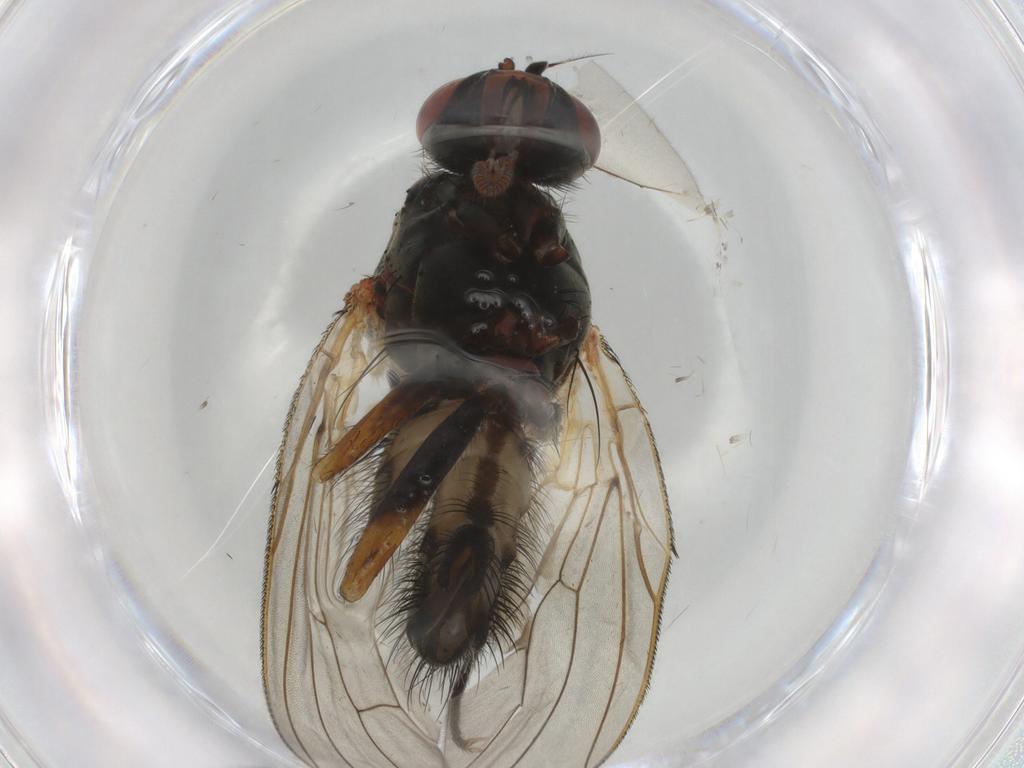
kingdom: Animalia
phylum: Arthropoda
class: Insecta
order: Diptera
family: Anthomyiidae
